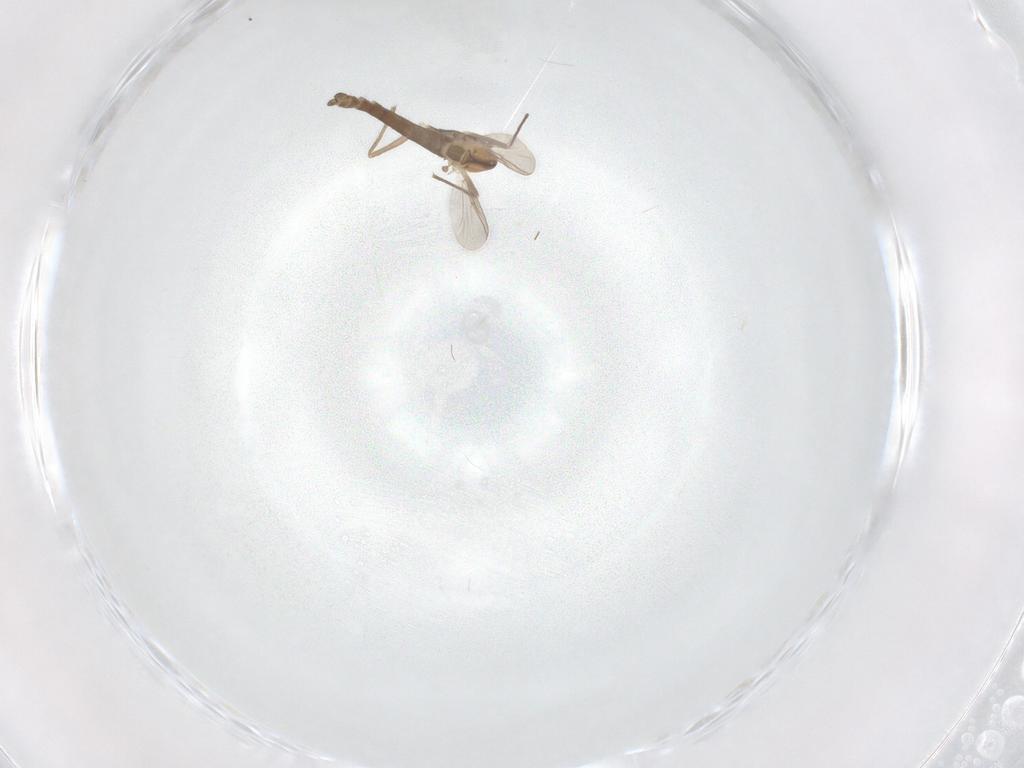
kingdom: Animalia
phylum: Arthropoda
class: Insecta
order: Diptera
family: Chironomidae
